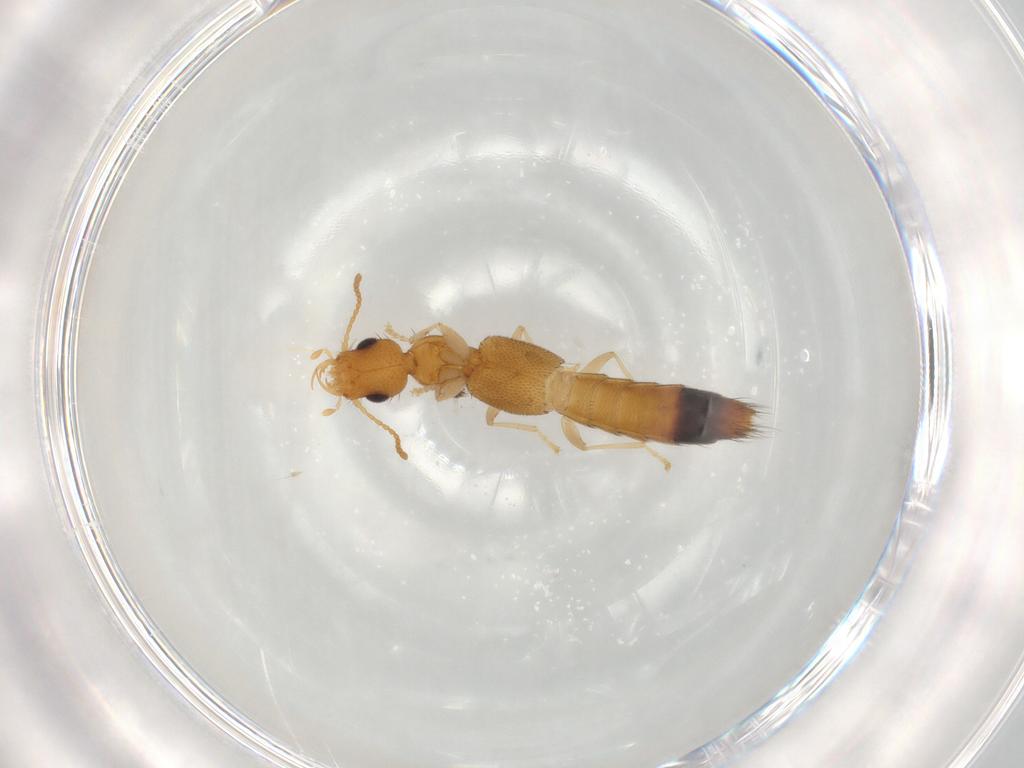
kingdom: Animalia
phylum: Arthropoda
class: Insecta
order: Coleoptera
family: Staphylinidae
